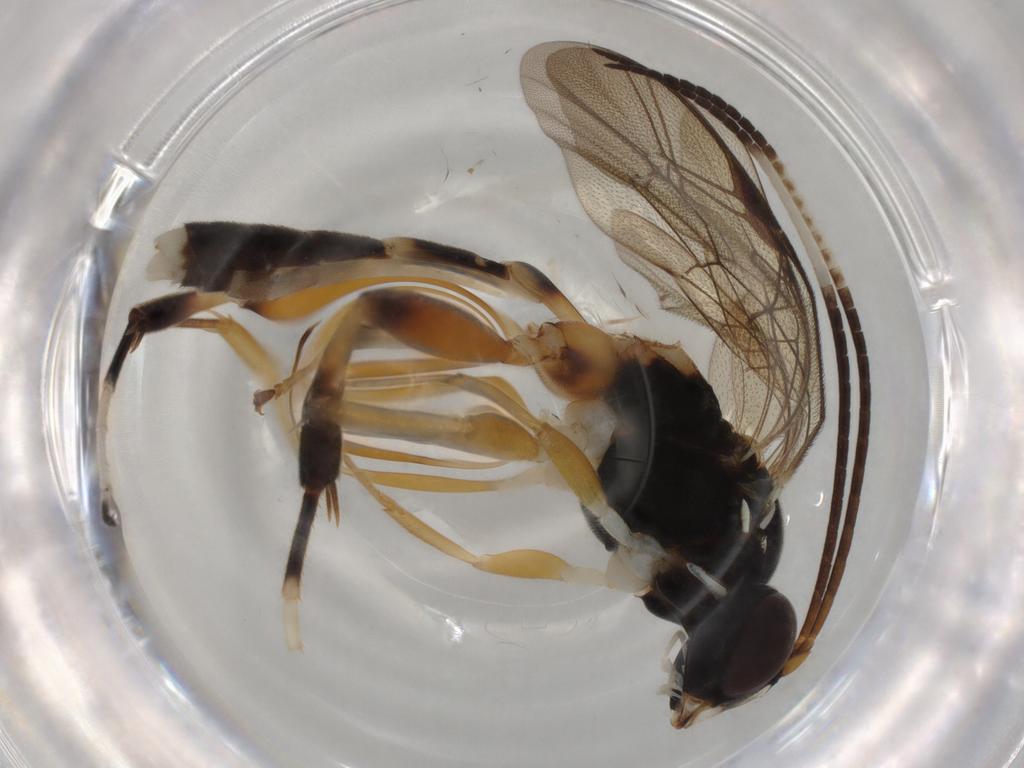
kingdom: Animalia
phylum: Arthropoda
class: Insecta
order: Hymenoptera
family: Ichneumonidae
